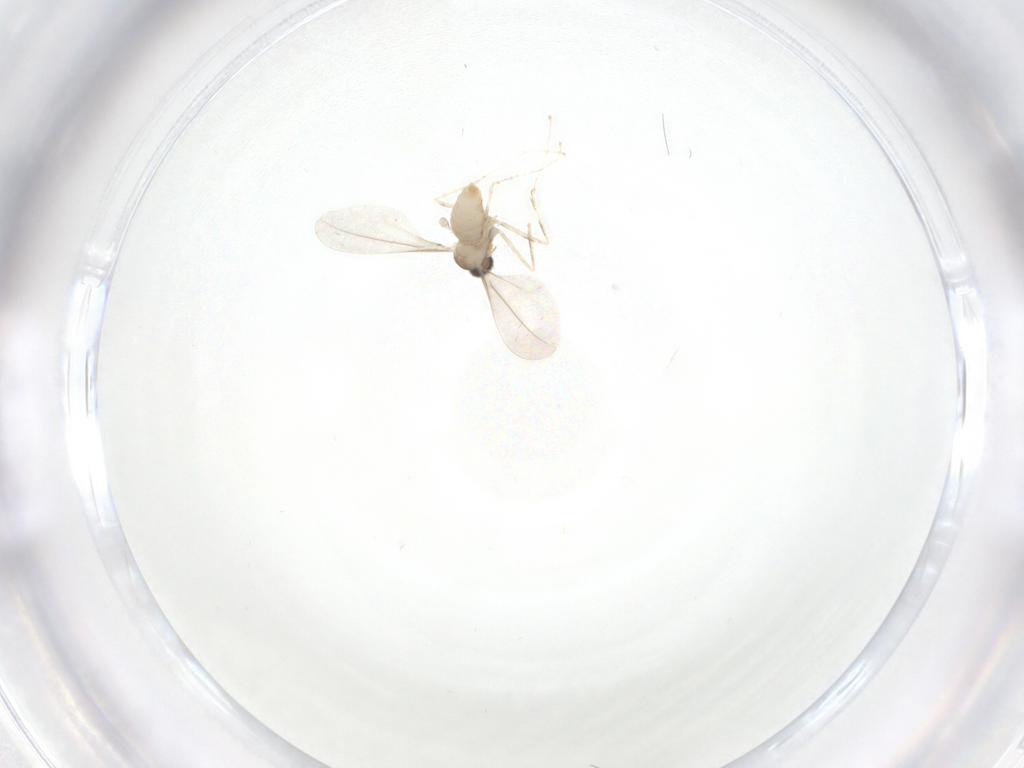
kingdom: Animalia
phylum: Arthropoda
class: Insecta
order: Diptera
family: Cecidomyiidae
